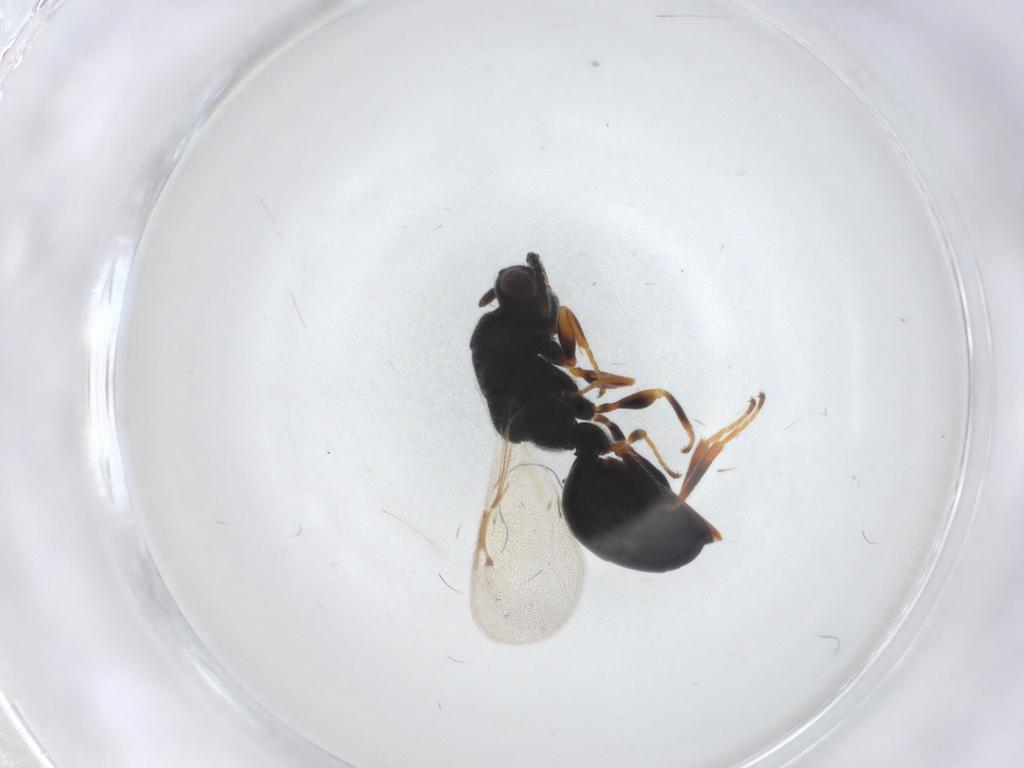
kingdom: Animalia
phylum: Arthropoda
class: Insecta
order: Hymenoptera
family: Eurytomidae
